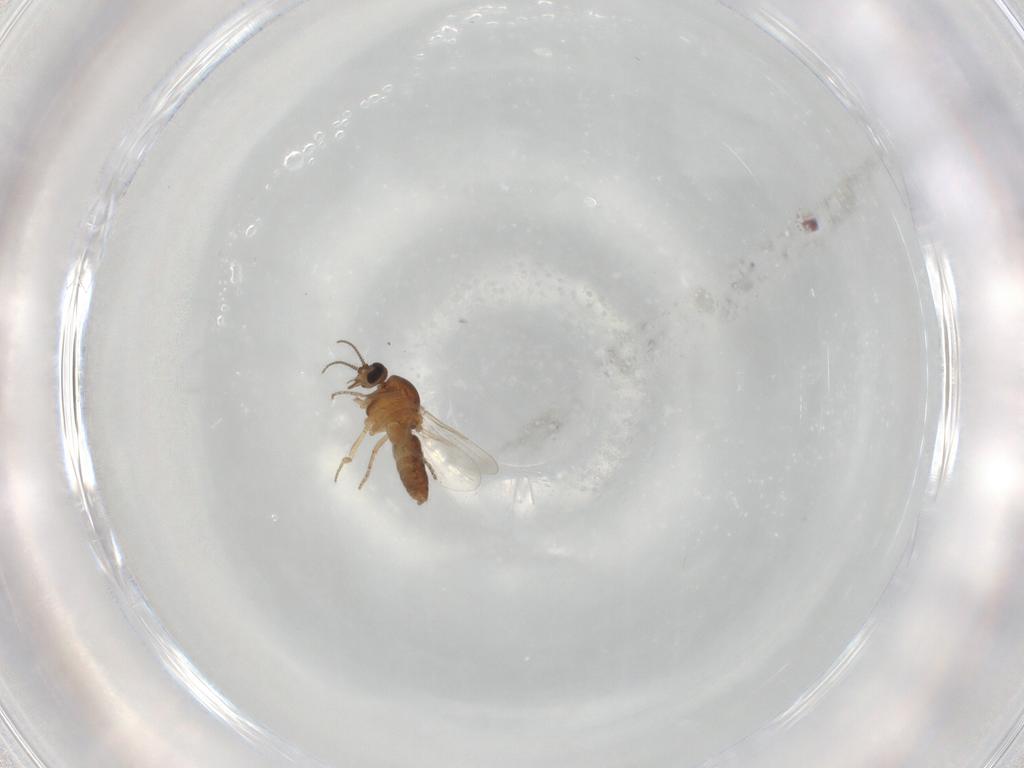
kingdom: Animalia
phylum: Arthropoda
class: Insecta
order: Diptera
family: Ceratopogonidae
